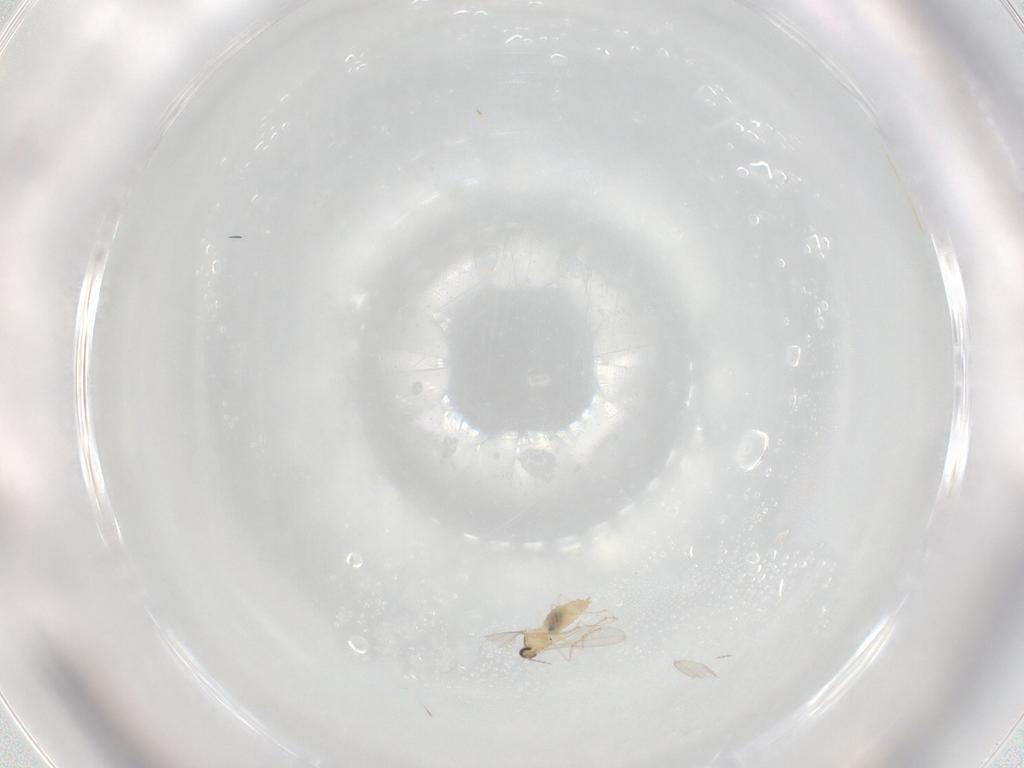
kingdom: Animalia
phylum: Arthropoda
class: Insecta
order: Diptera
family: Cecidomyiidae
